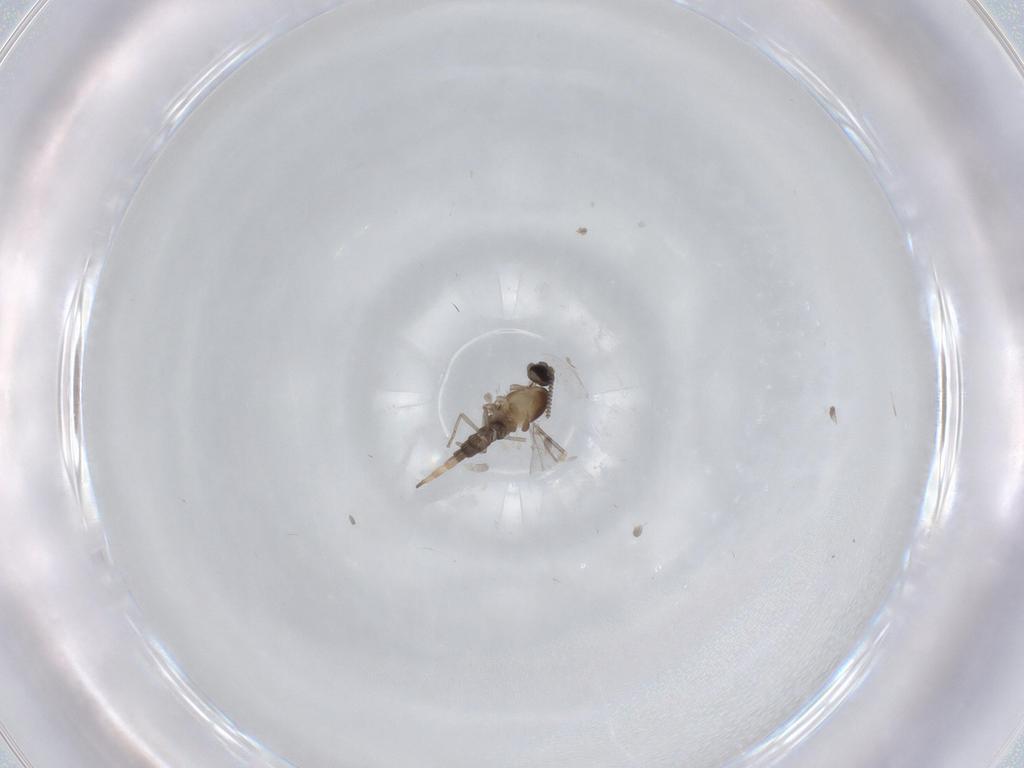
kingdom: Animalia
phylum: Arthropoda
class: Insecta
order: Diptera
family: Cecidomyiidae
